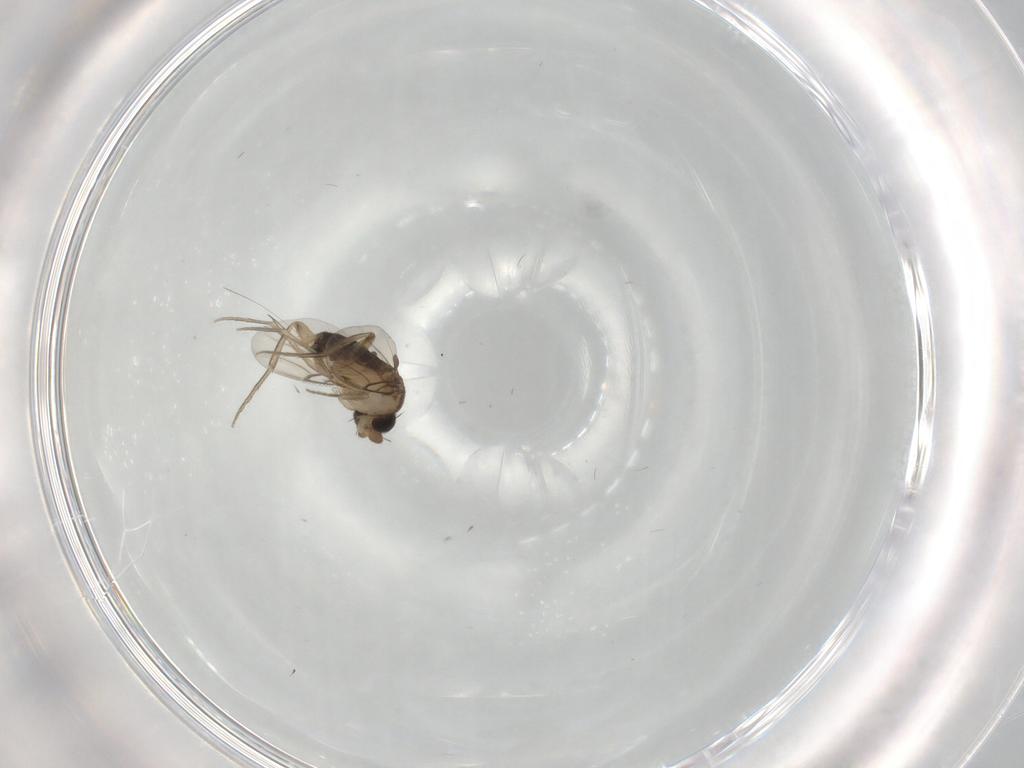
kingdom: Animalia
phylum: Arthropoda
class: Insecta
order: Diptera
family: Phoridae
